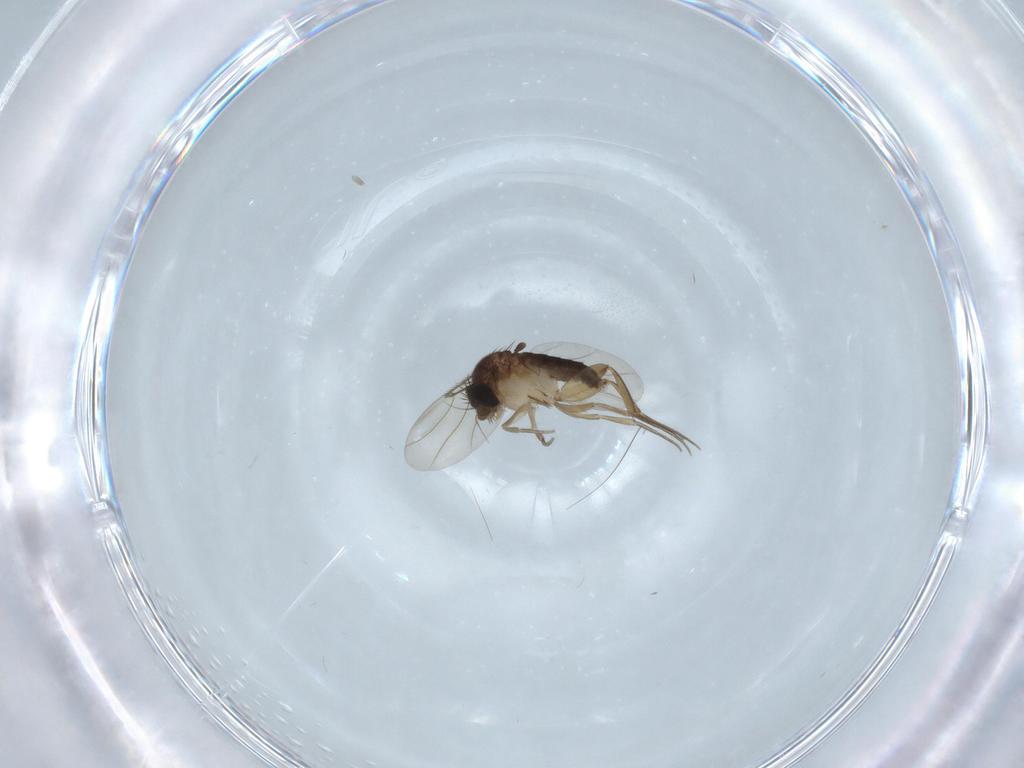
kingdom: Animalia
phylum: Arthropoda
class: Insecta
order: Diptera
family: Phoridae
